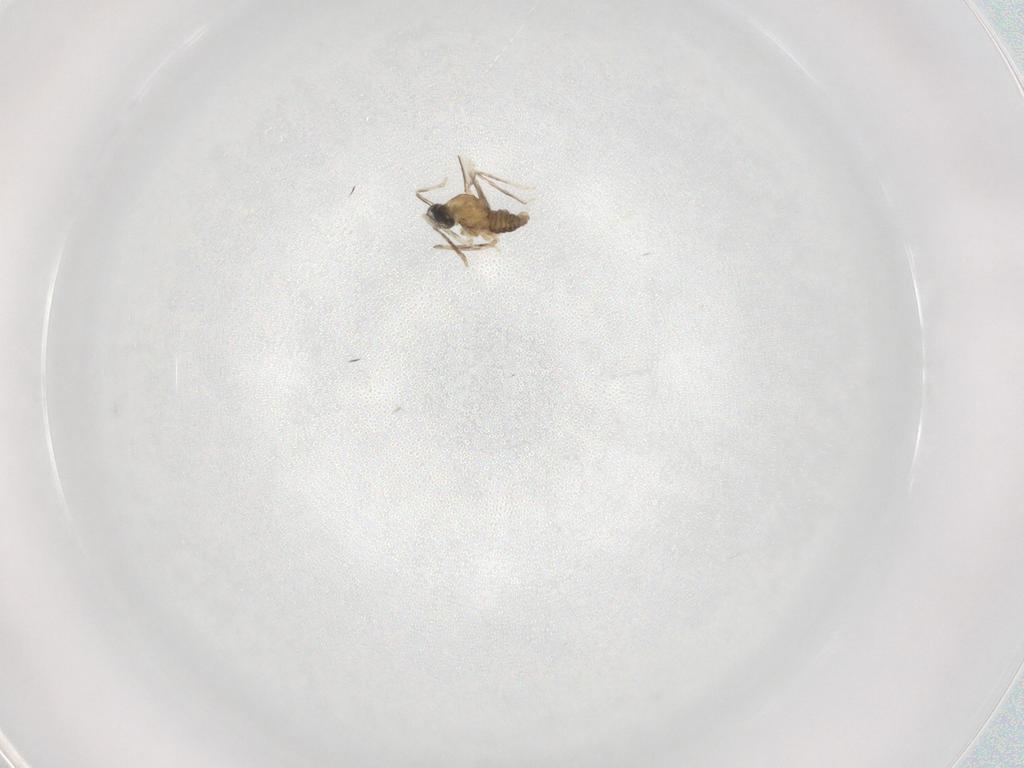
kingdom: Animalia
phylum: Arthropoda
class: Insecta
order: Diptera
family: Cecidomyiidae
